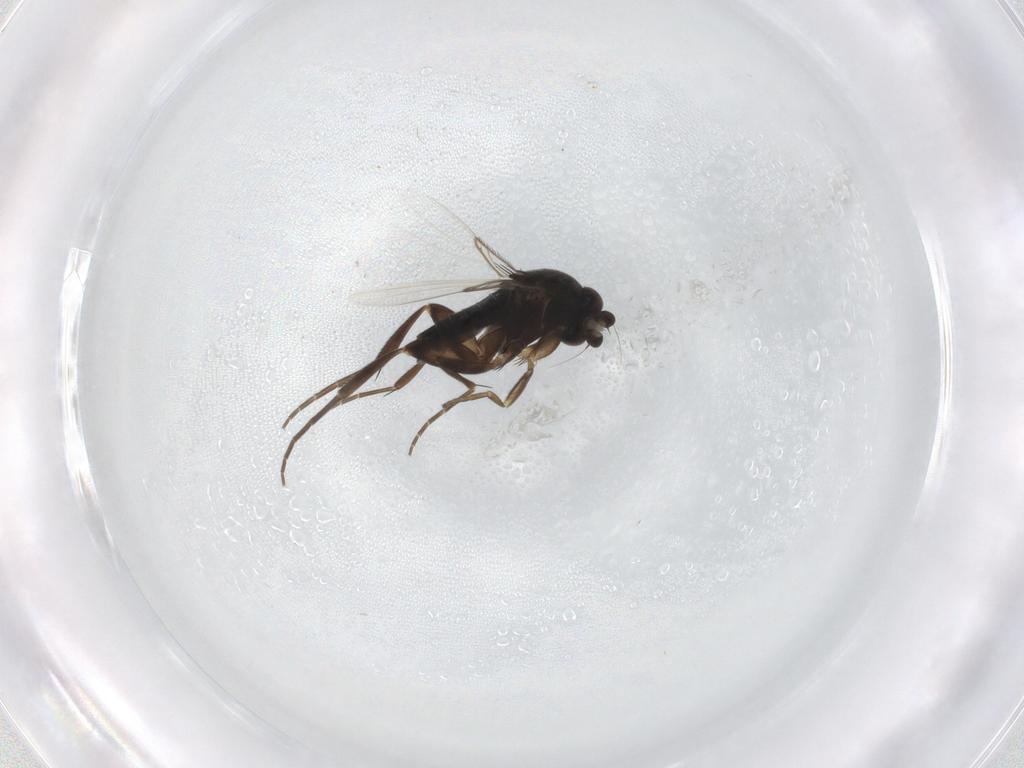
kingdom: Animalia
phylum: Arthropoda
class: Insecta
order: Diptera
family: Phoridae
